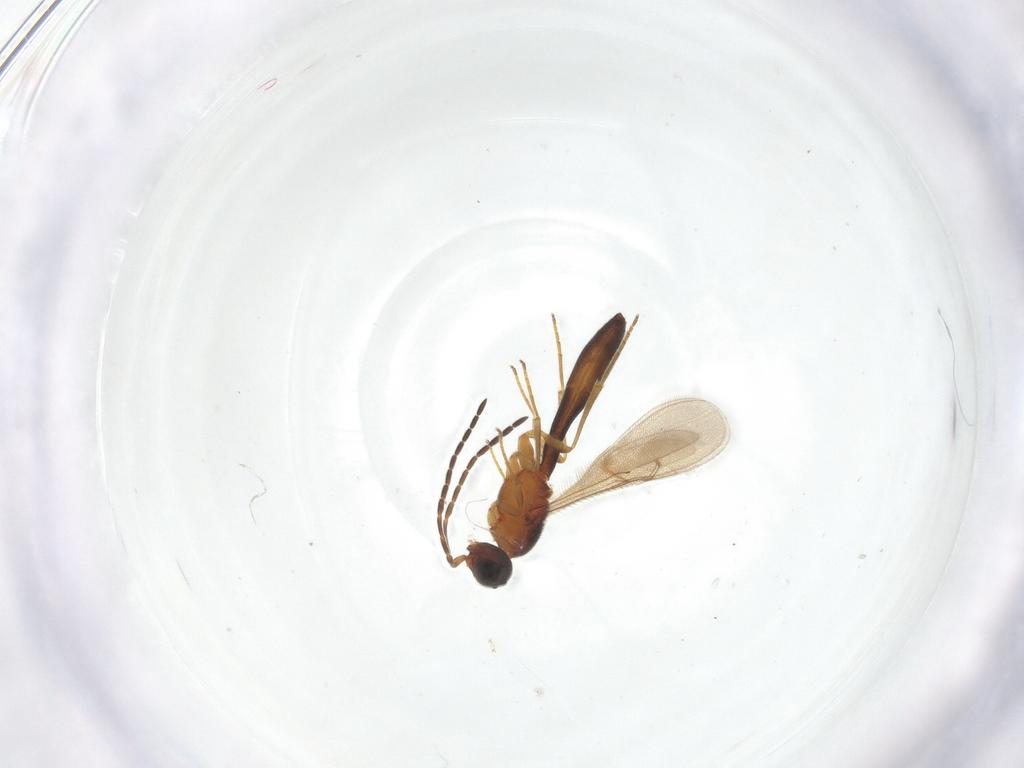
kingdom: Animalia
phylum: Arthropoda
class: Insecta
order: Hymenoptera
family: Scelionidae
